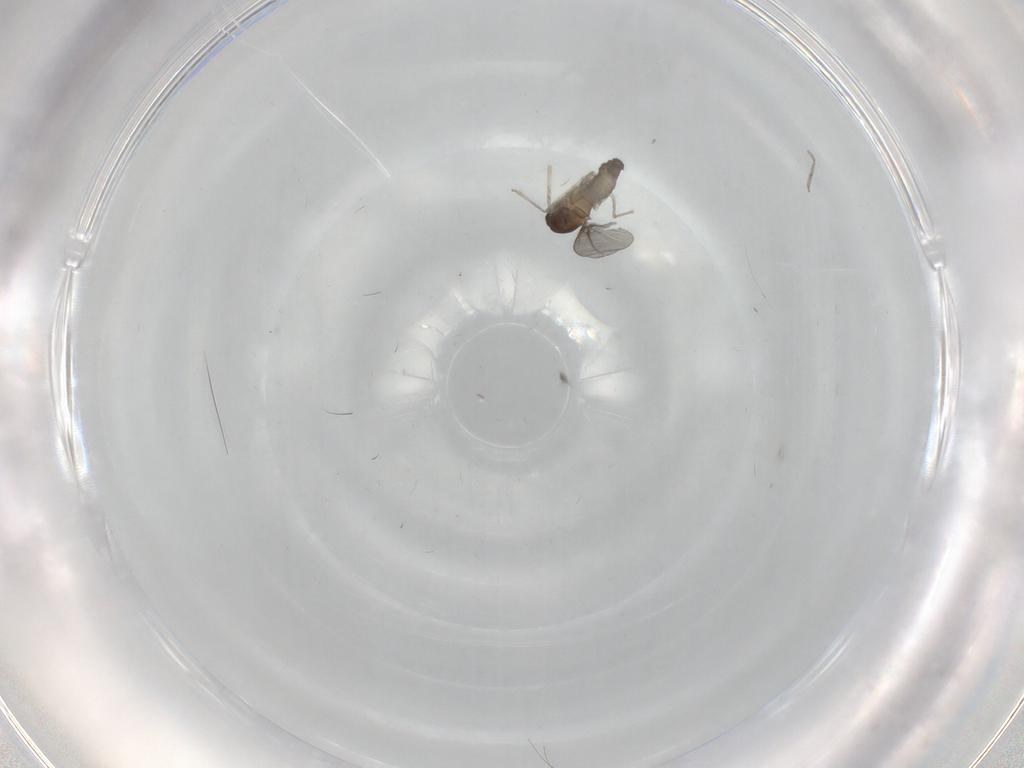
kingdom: Animalia
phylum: Arthropoda
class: Insecta
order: Diptera
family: Cecidomyiidae
